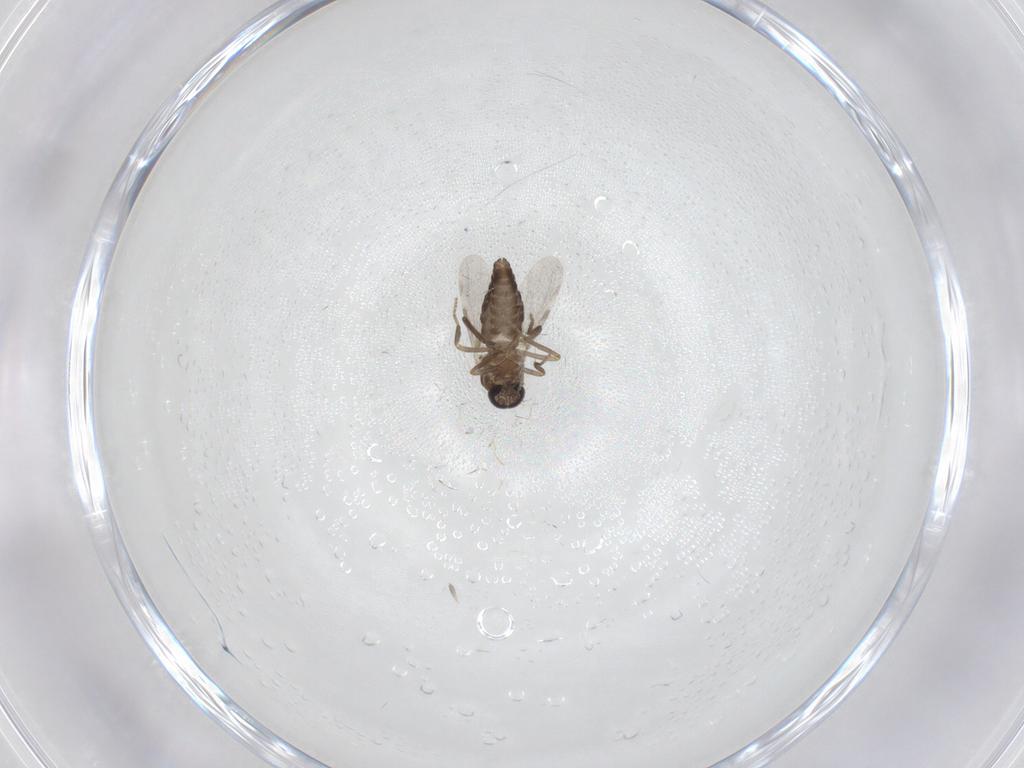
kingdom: Animalia
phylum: Arthropoda
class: Insecta
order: Diptera
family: Ceratopogonidae
